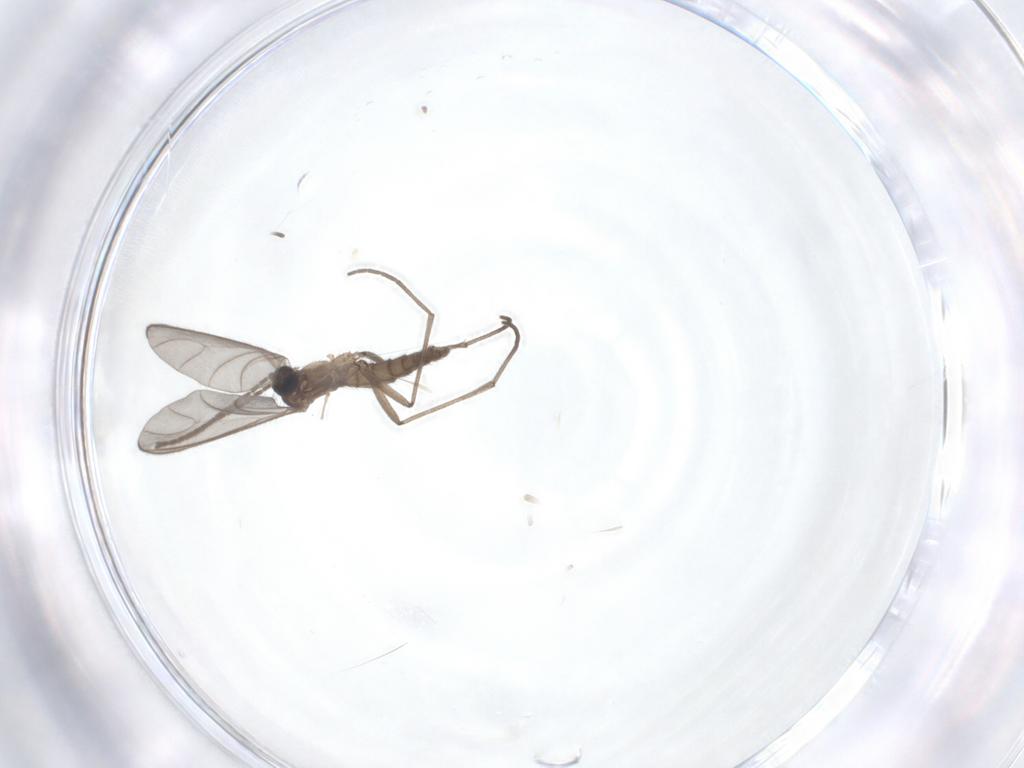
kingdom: Animalia
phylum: Arthropoda
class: Insecta
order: Diptera
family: Sciaridae
